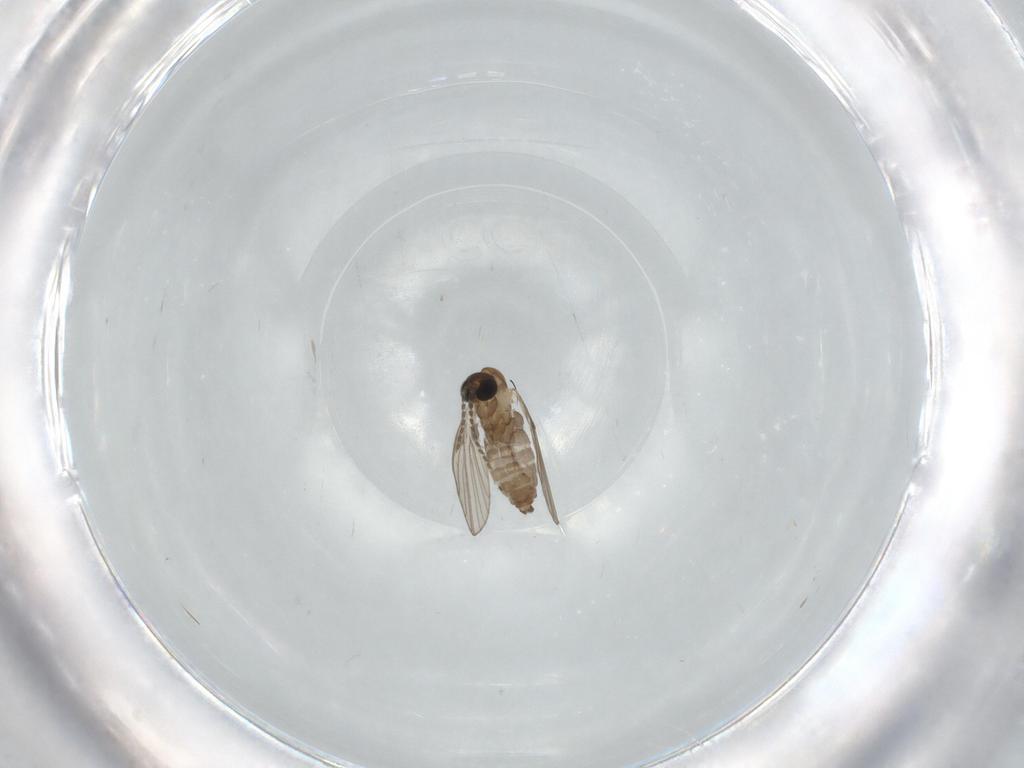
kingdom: Animalia
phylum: Arthropoda
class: Insecta
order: Diptera
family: Psychodidae
